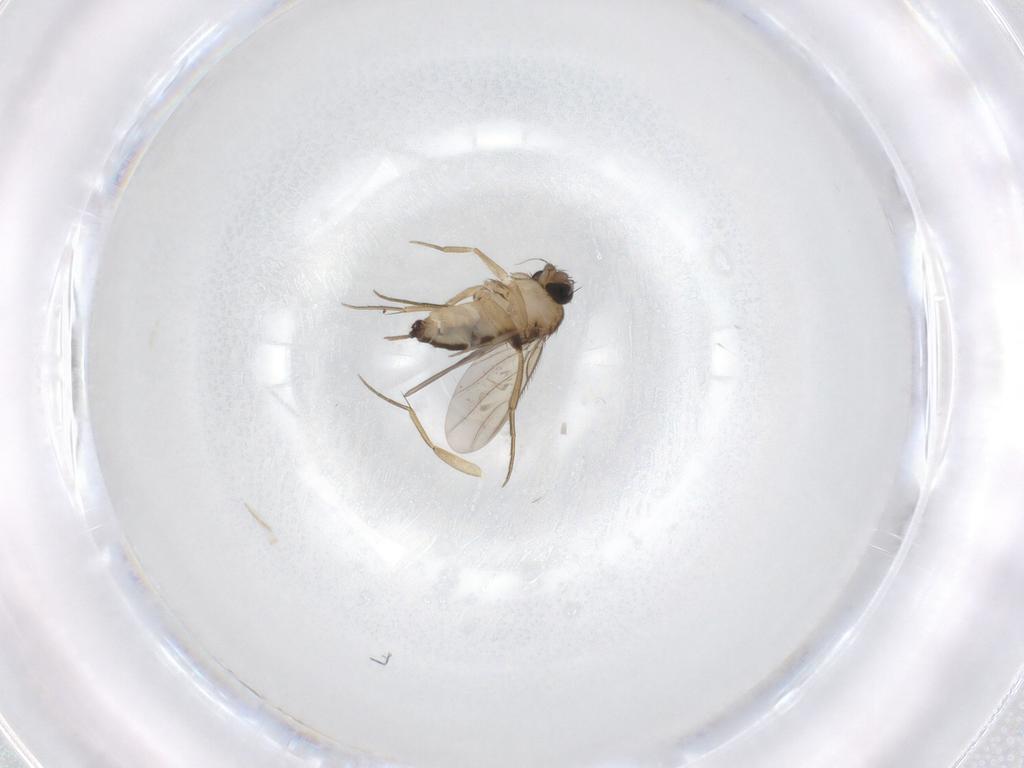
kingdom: Animalia
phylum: Arthropoda
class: Insecta
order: Diptera
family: Phoridae
